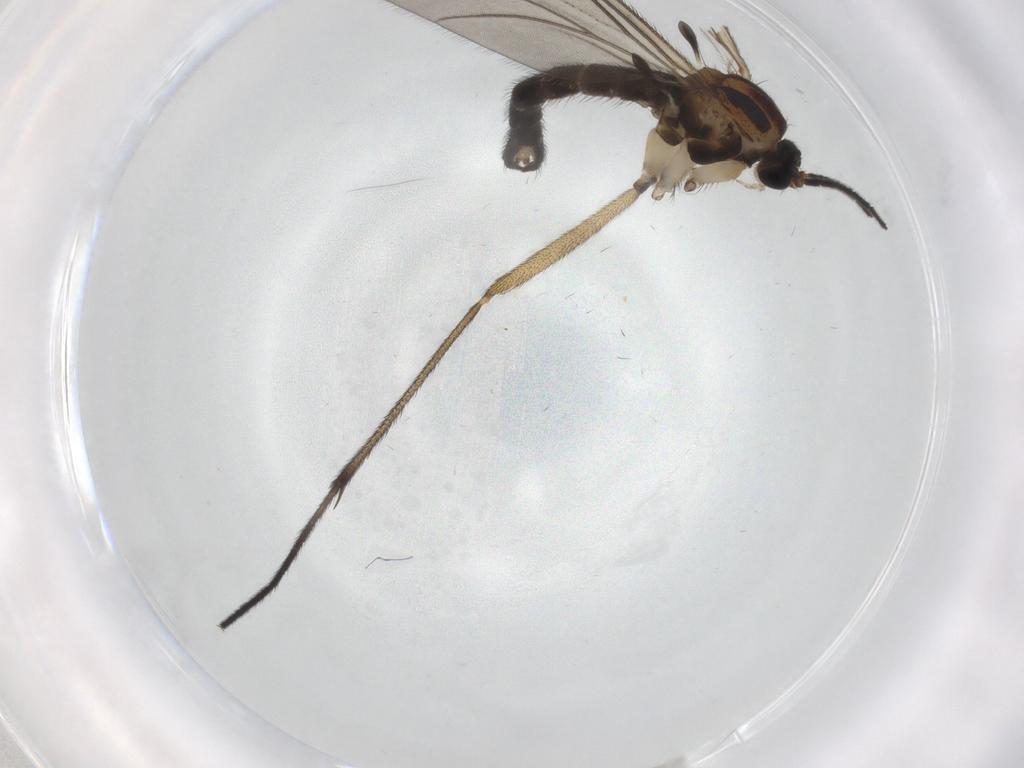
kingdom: Animalia
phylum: Arthropoda
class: Insecta
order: Diptera
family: Sciaridae
